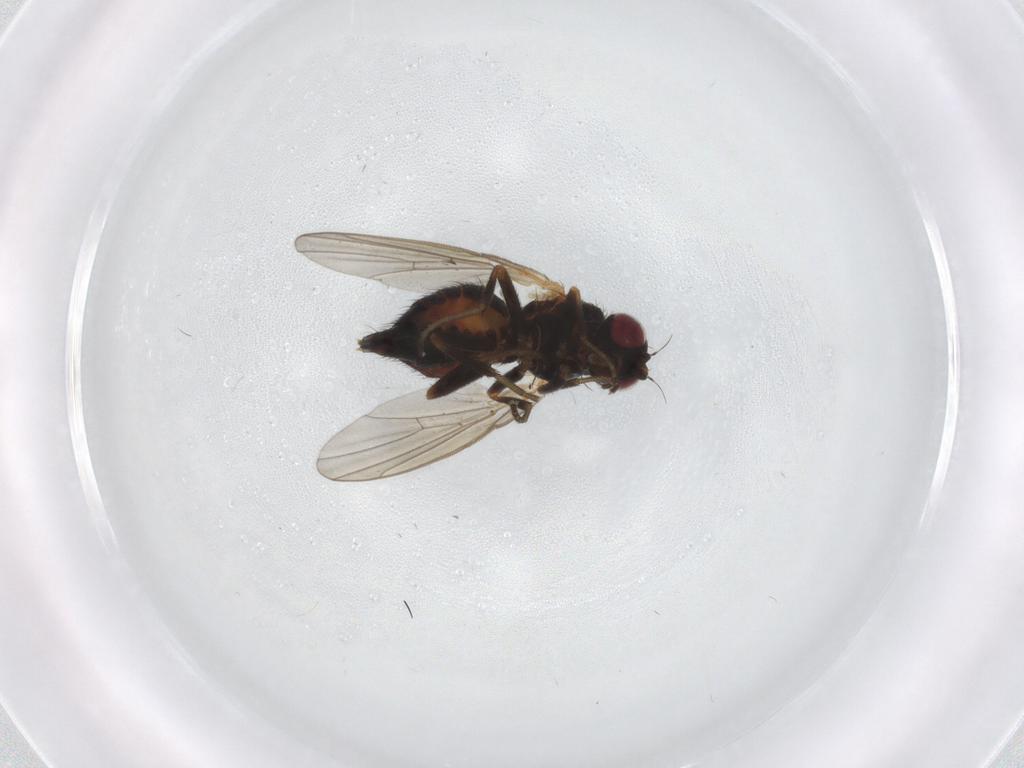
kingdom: Animalia
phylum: Arthropoda
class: Insecta
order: Diptera
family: Agromyzidae
